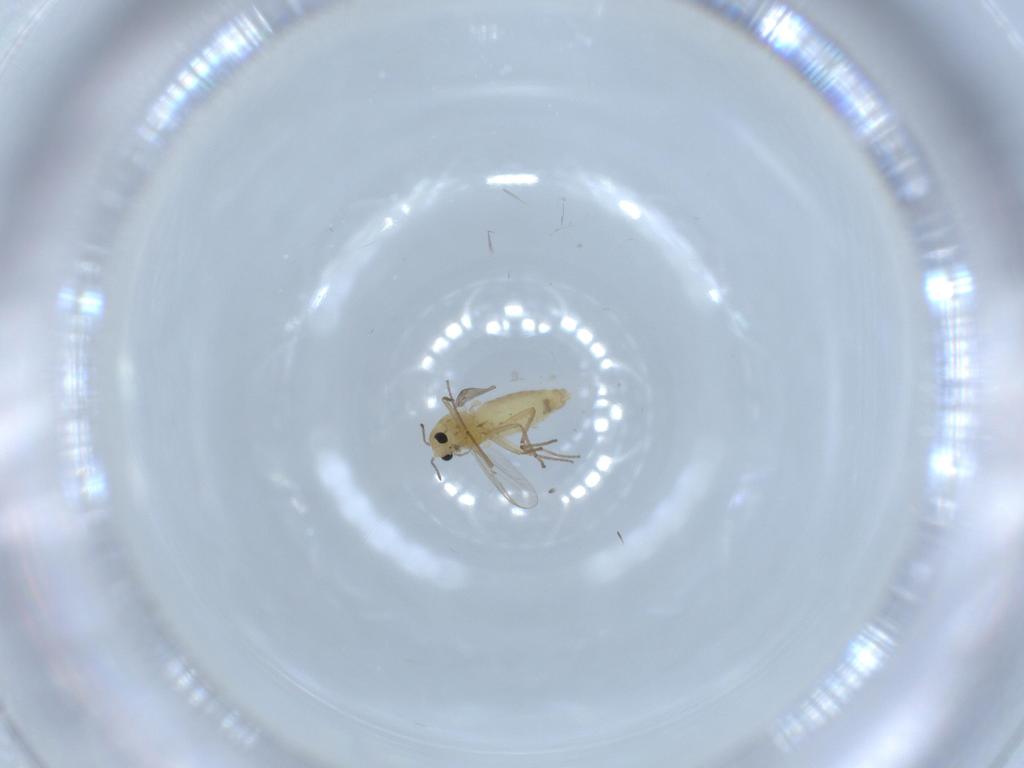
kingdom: Animalia
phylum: Arthropoda
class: Insecta
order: Diptera
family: Chironomidae
